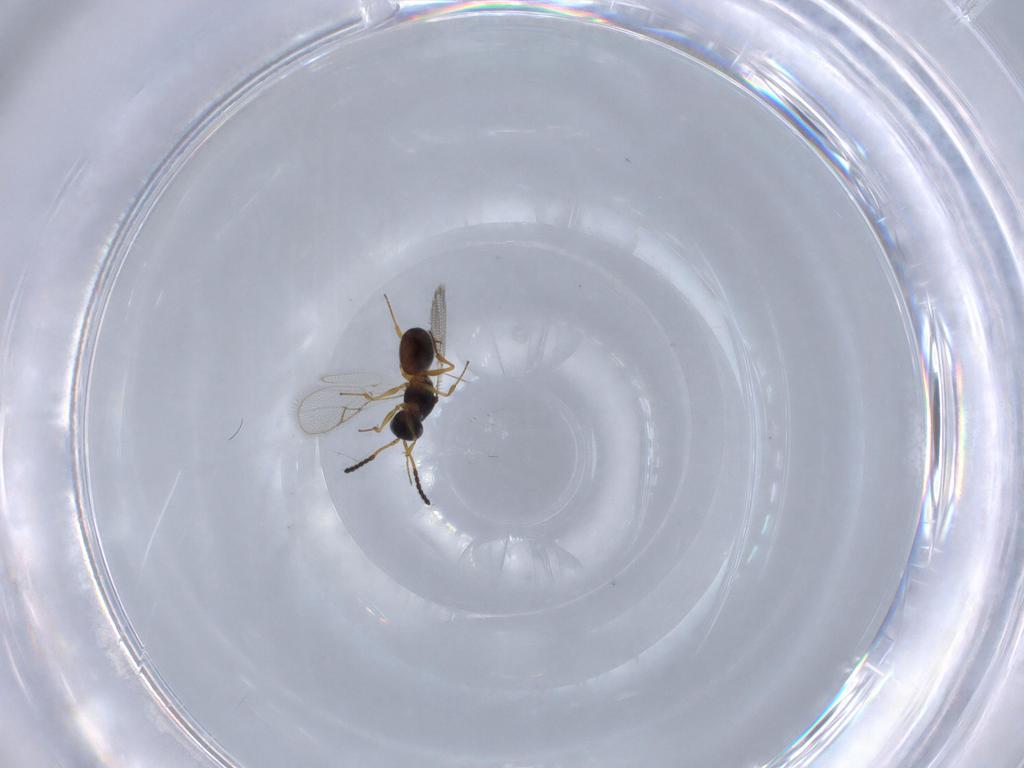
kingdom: Animalia
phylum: Arthropoda
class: Insecta
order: Hymenoptera
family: Figitidae
